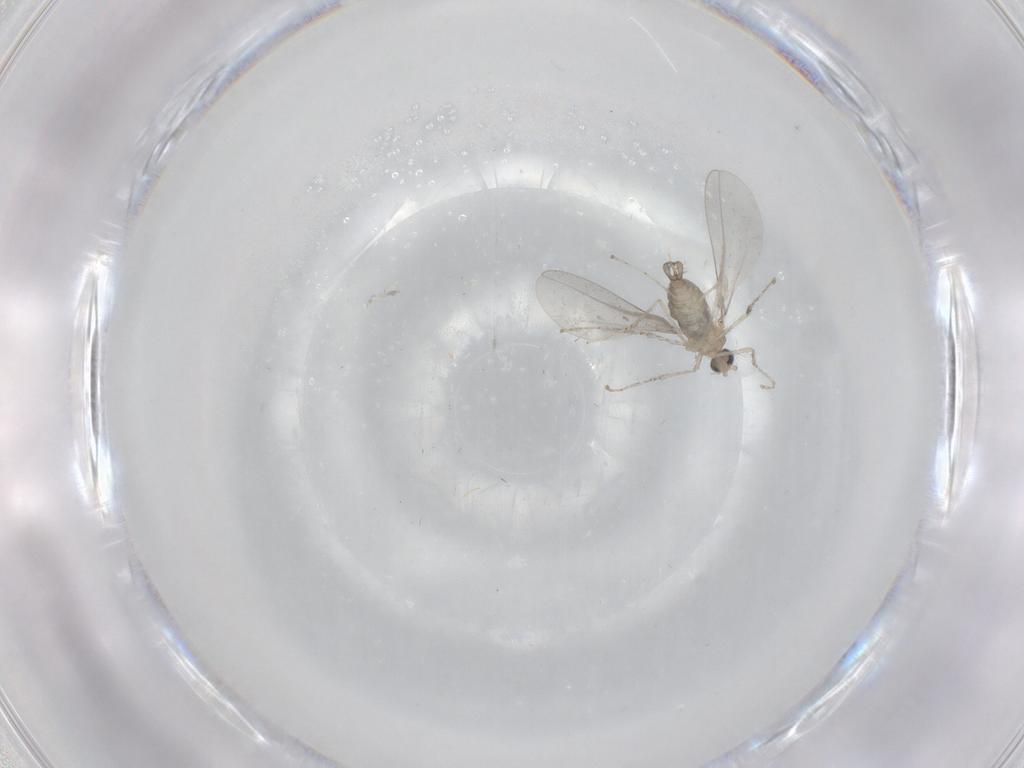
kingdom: Animalia
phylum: Arthropoda
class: Insecta
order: Diptera
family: Cecidomyiidae
